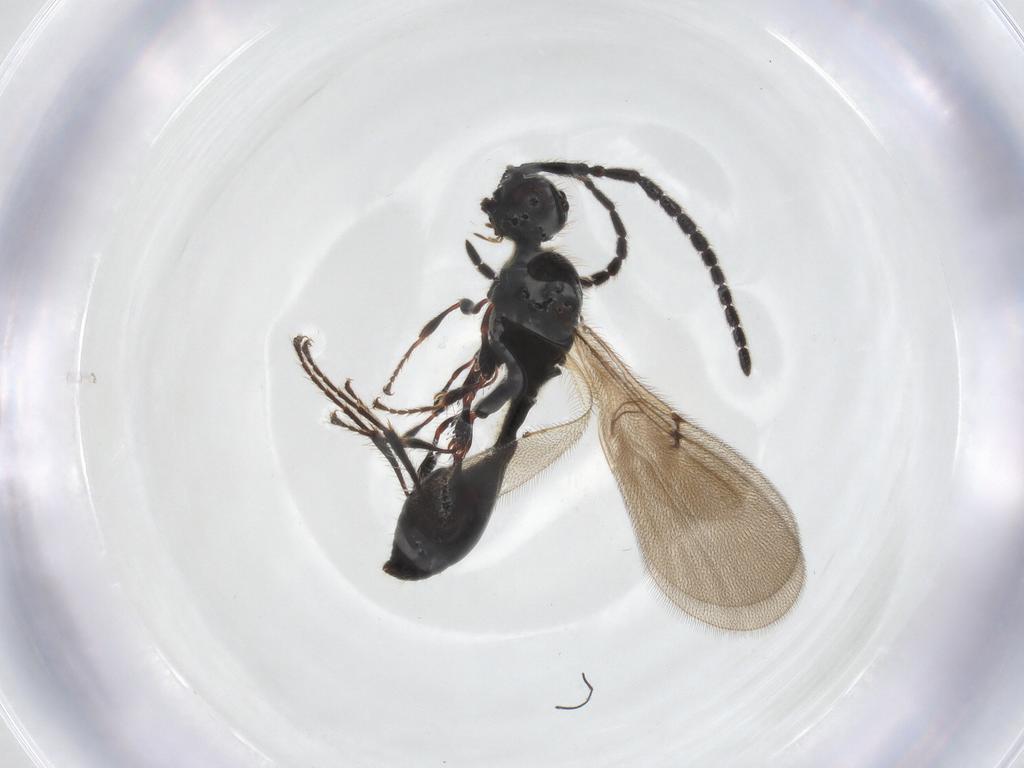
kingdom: Animalia
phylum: Arthropoda
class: Insecta
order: Hymenoptera
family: Diapriidae
